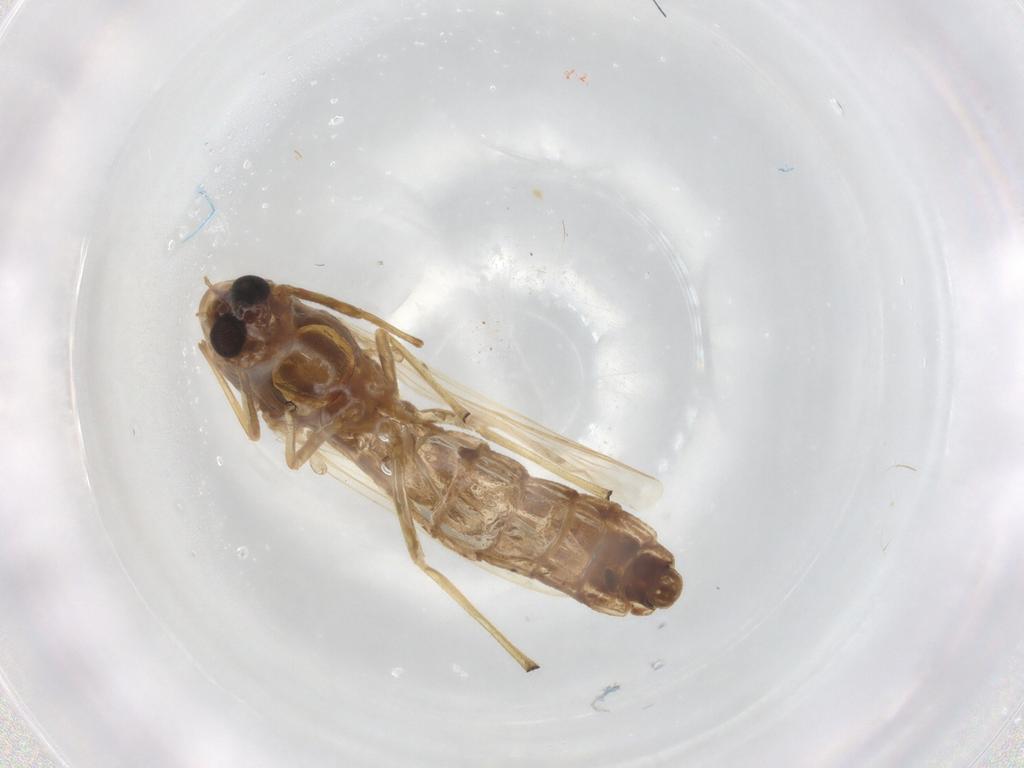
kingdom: Animalia
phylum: Arthropoda
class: Insecta
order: Diptera
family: Chironomidae
